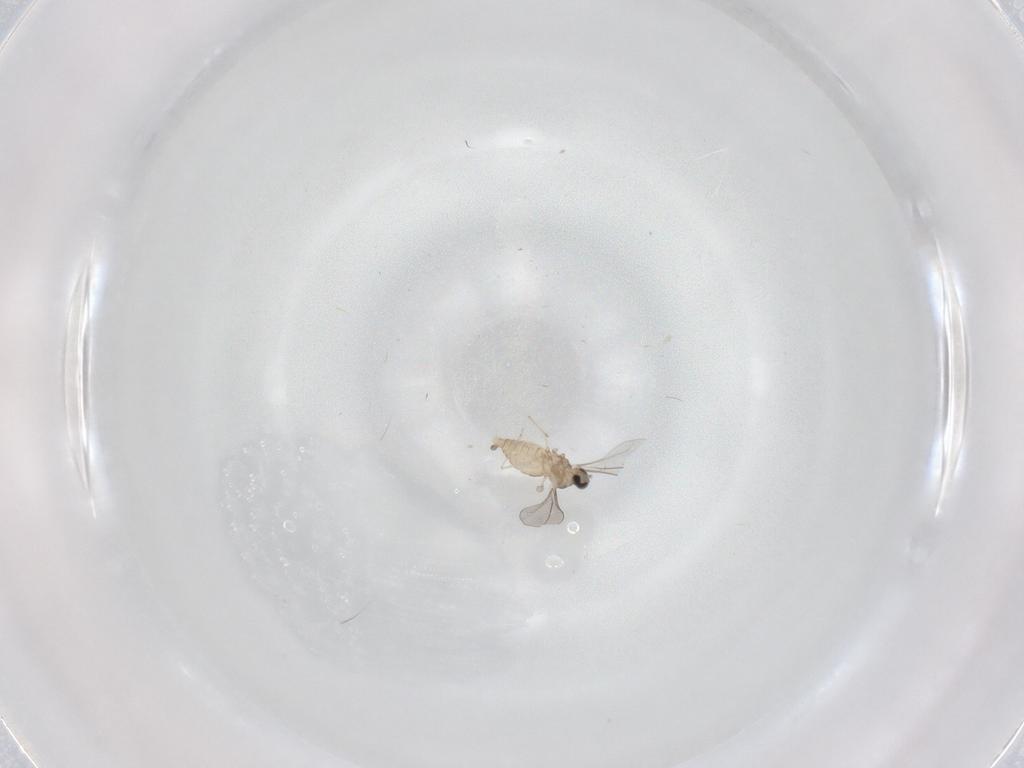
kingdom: Animalia
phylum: Arthropoda
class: Insecta
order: Diptera
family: Cecidomyiidae
